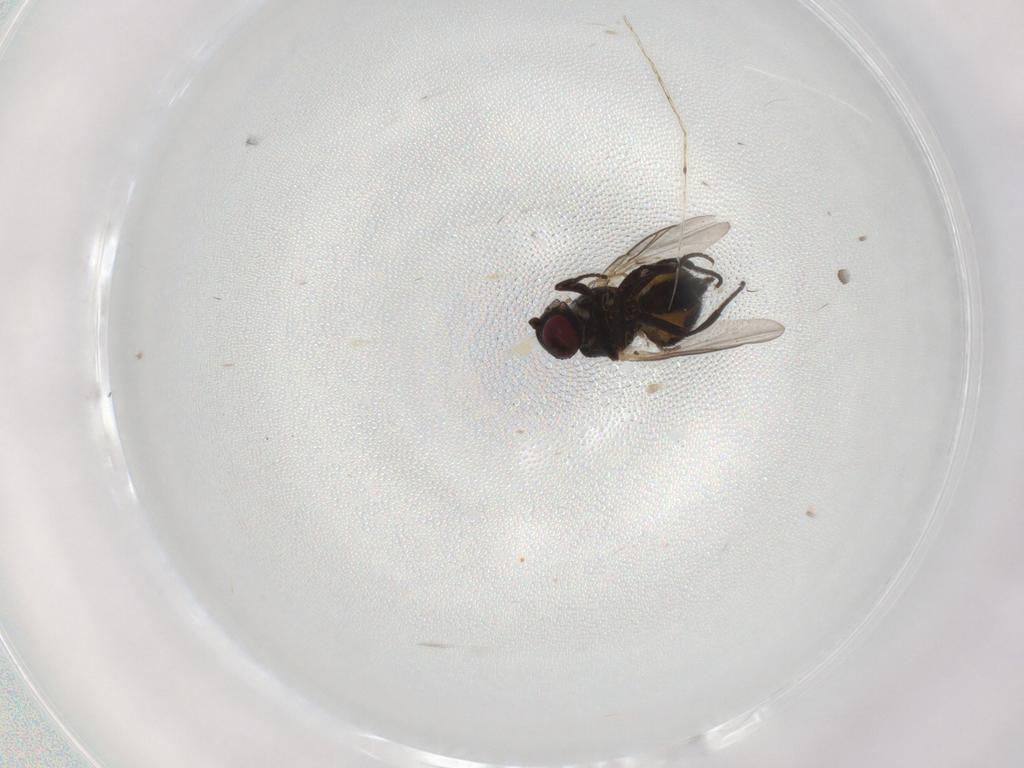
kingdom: Animalia
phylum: Arthropoda
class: Insecta
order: Diptera
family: Agromyzidae
